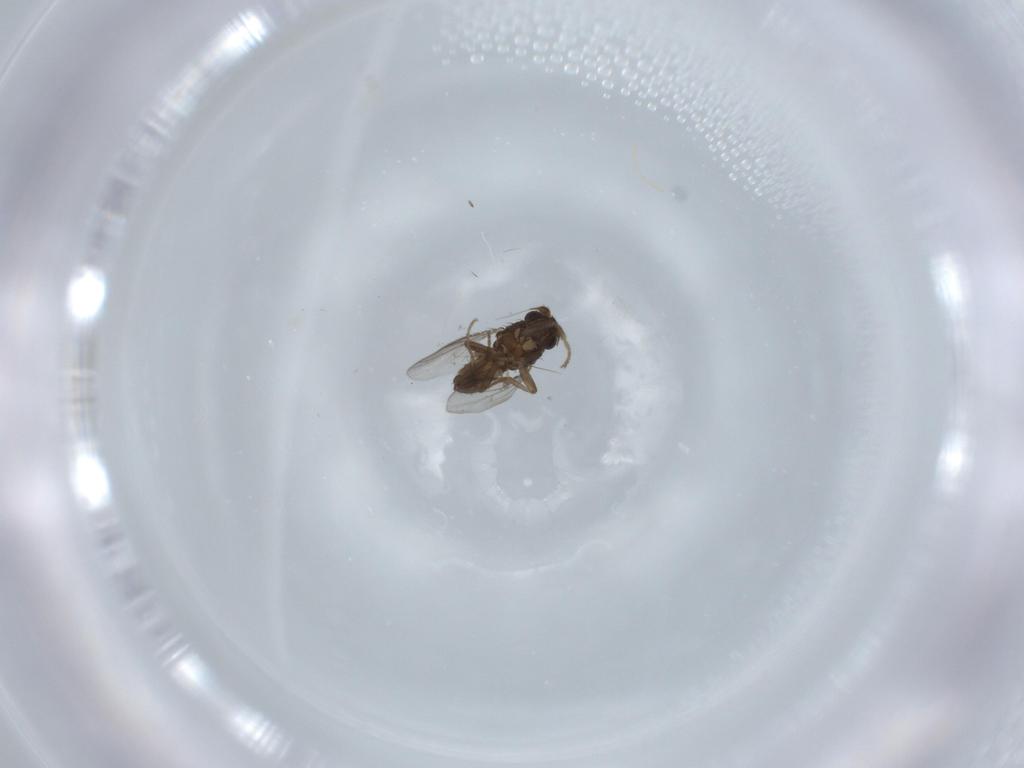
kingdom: Animalia
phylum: Arthropoda
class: Insecta
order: Diptera
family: Sphaeroceridae
